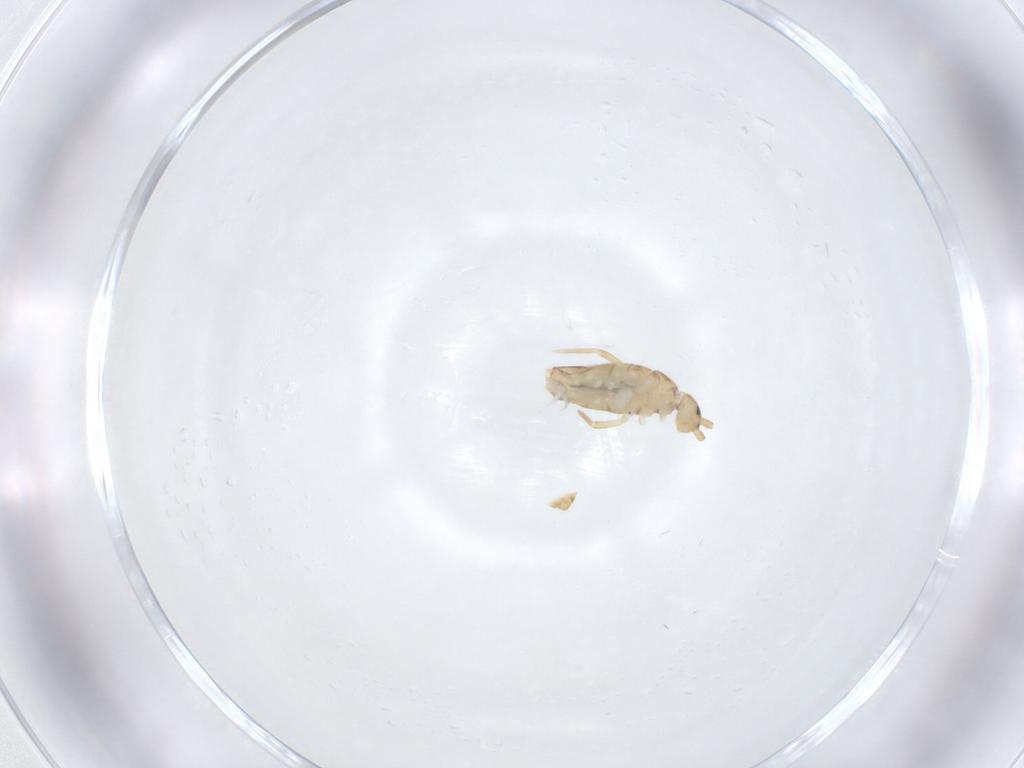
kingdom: Animalia
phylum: Arthropoda
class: Collembola
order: Entomobryomorpha
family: Entomobryidae
